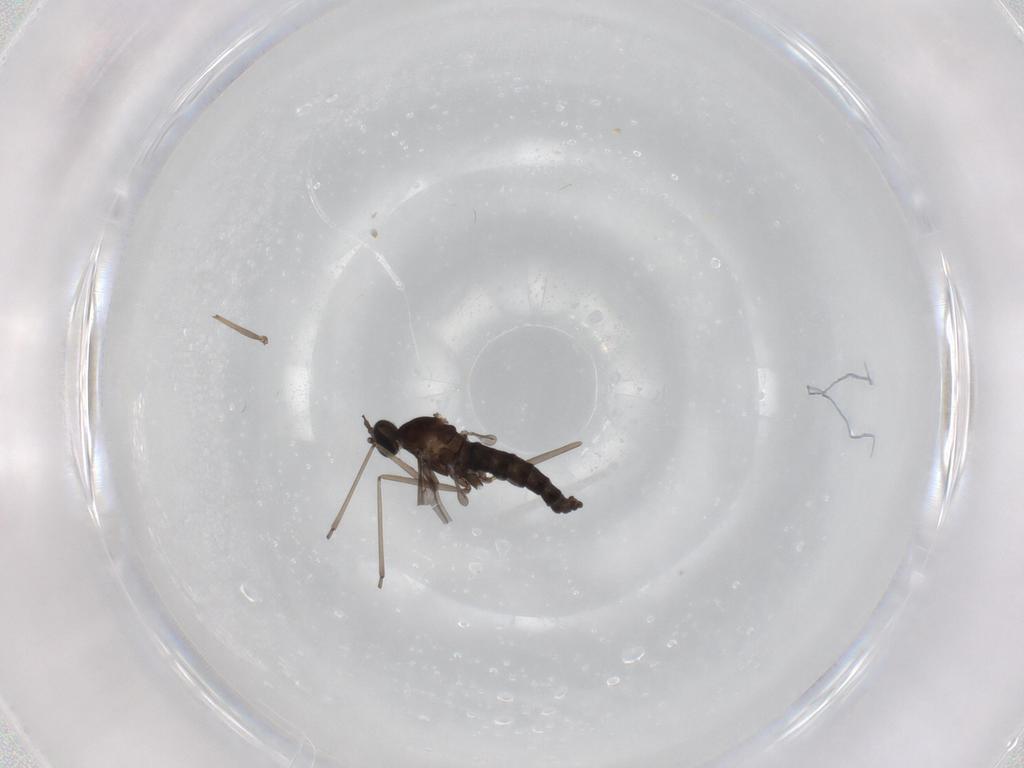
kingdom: Animalia
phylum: Arthropoda
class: Insecta
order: Diptera
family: Cecidomyiidae
